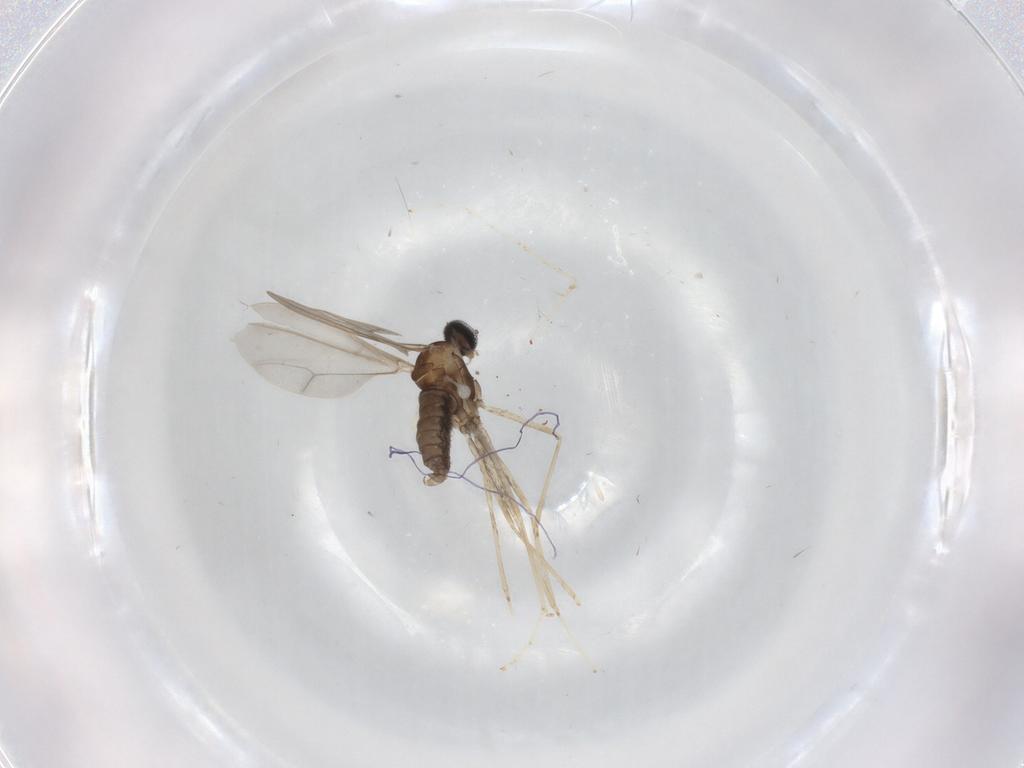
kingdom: Animalia
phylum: Arthropoda
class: Insecta
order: Diptera
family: Cecidomyiidae
